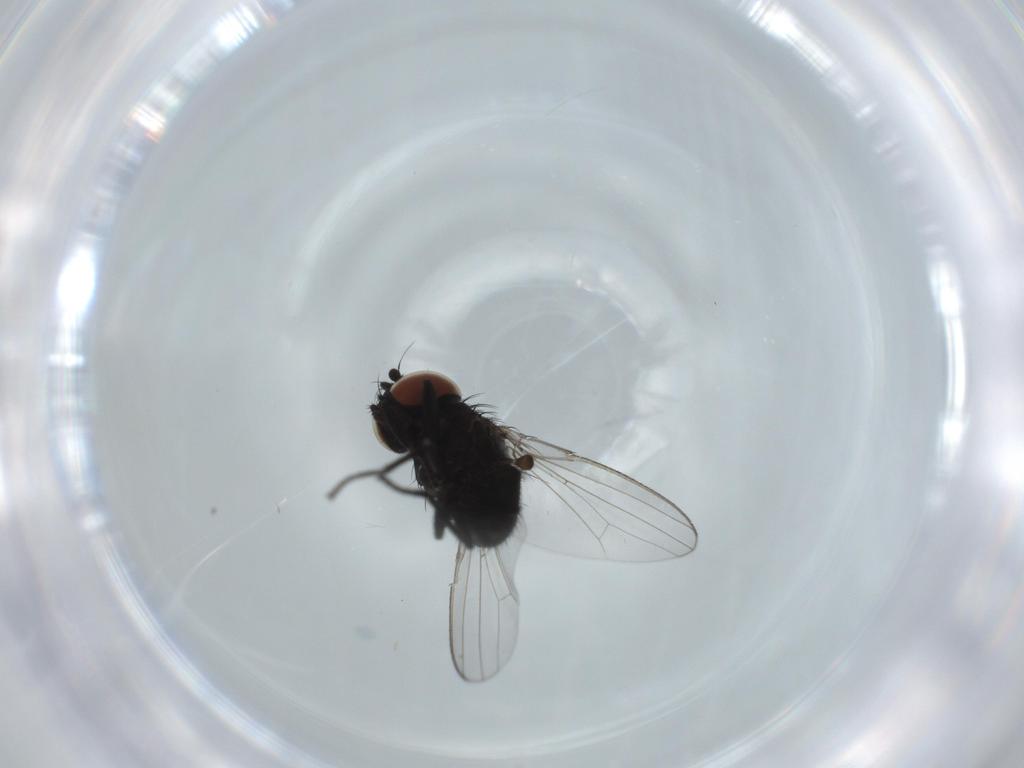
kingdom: Animalia
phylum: Arthropoda
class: Insecta
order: Diptera
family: Milichiidae
